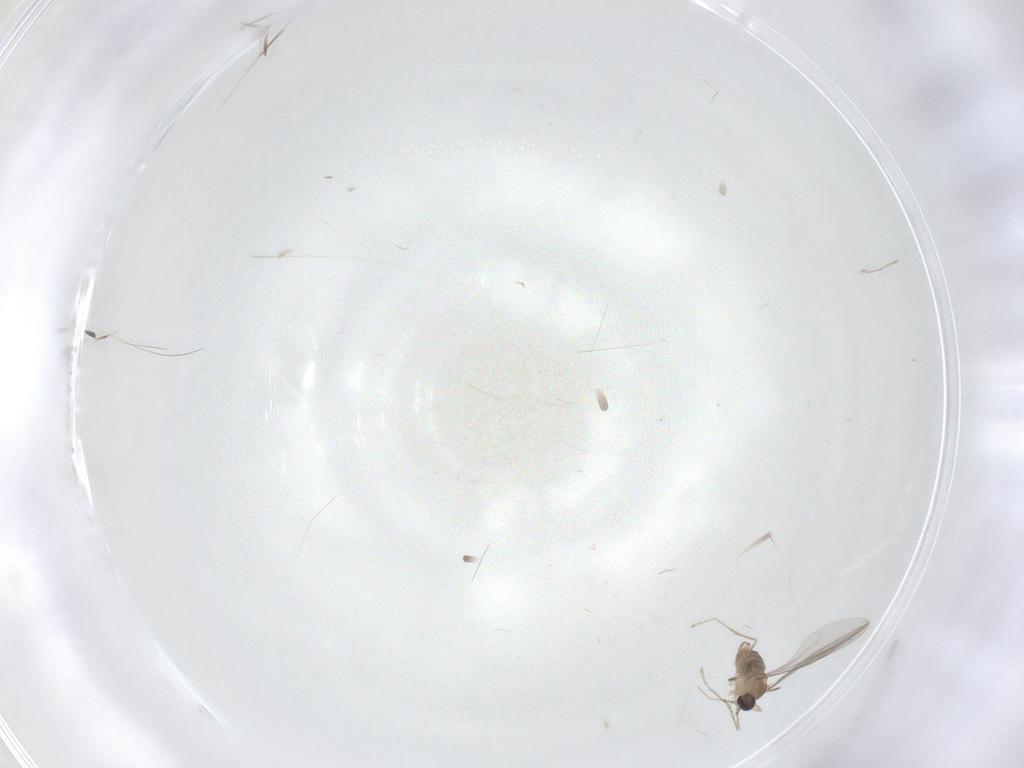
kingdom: Animalia
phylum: Arthropoda
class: Insecta
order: Diptera
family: Cecidomyiidae
